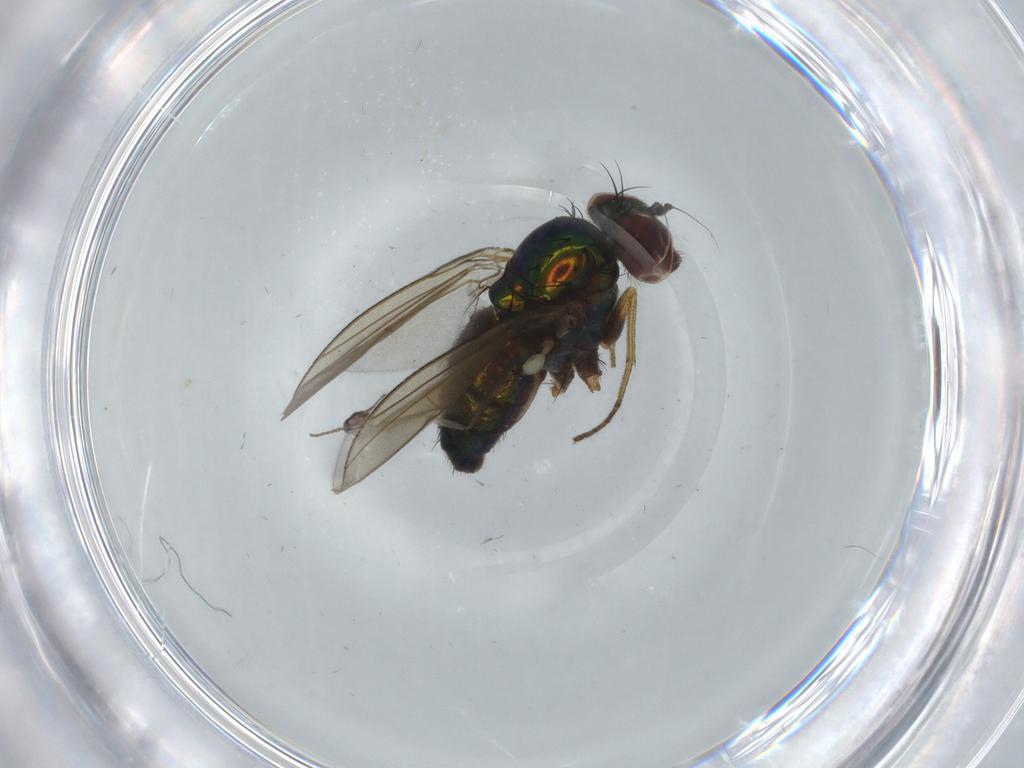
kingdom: Animalia
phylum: Arthropoda
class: Insecta
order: Diptera
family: Dolichopodidae
